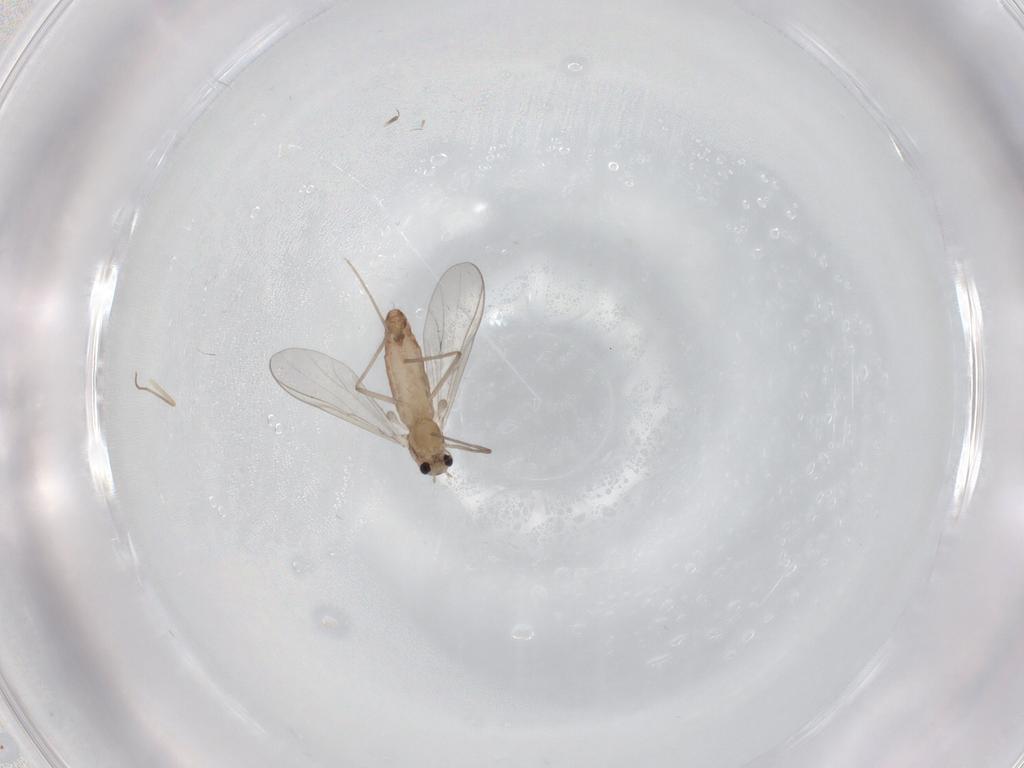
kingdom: Animalia
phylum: Arthropoda
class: Insecta
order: Diptera
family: Chironomidae
